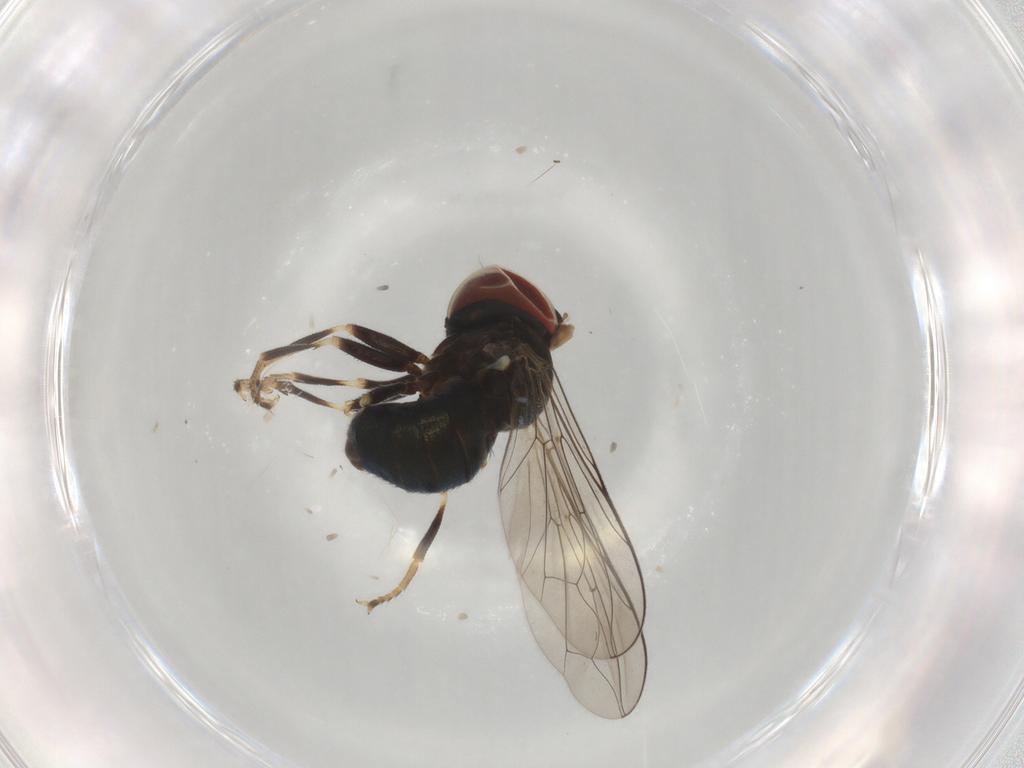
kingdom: Animalia
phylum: Arthropoda
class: Insecta
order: Diptera
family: Pipunculidae
